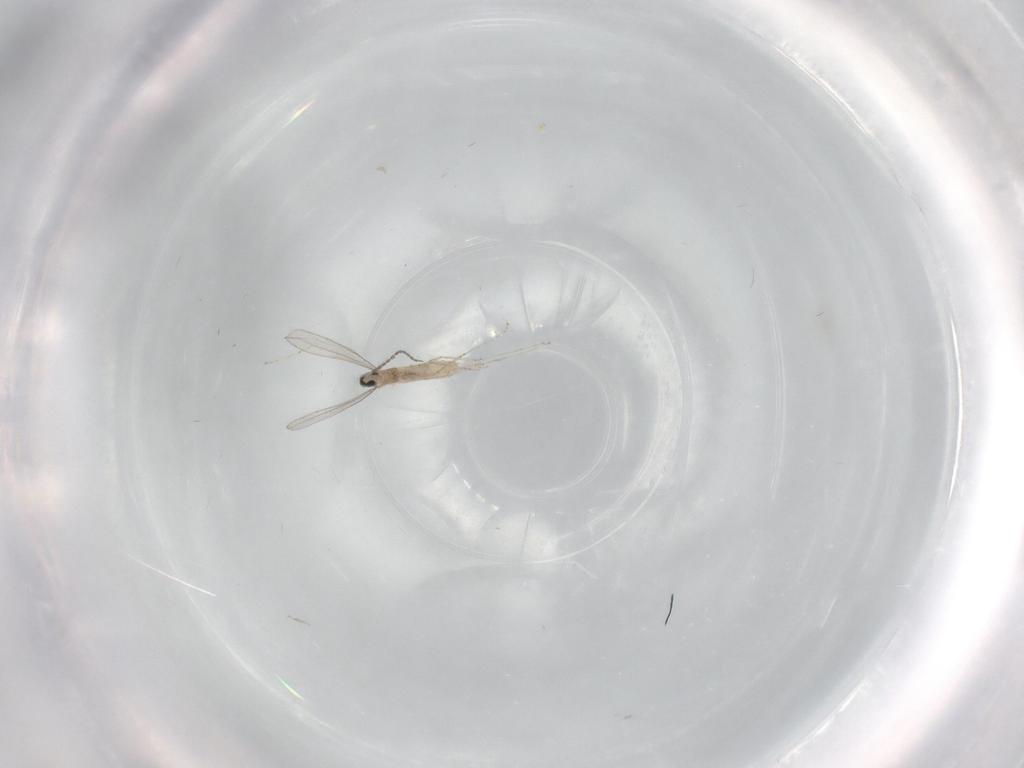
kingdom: Animalia
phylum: Arthropoda
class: Insecta
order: Diptera
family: Cecidomyiidae
